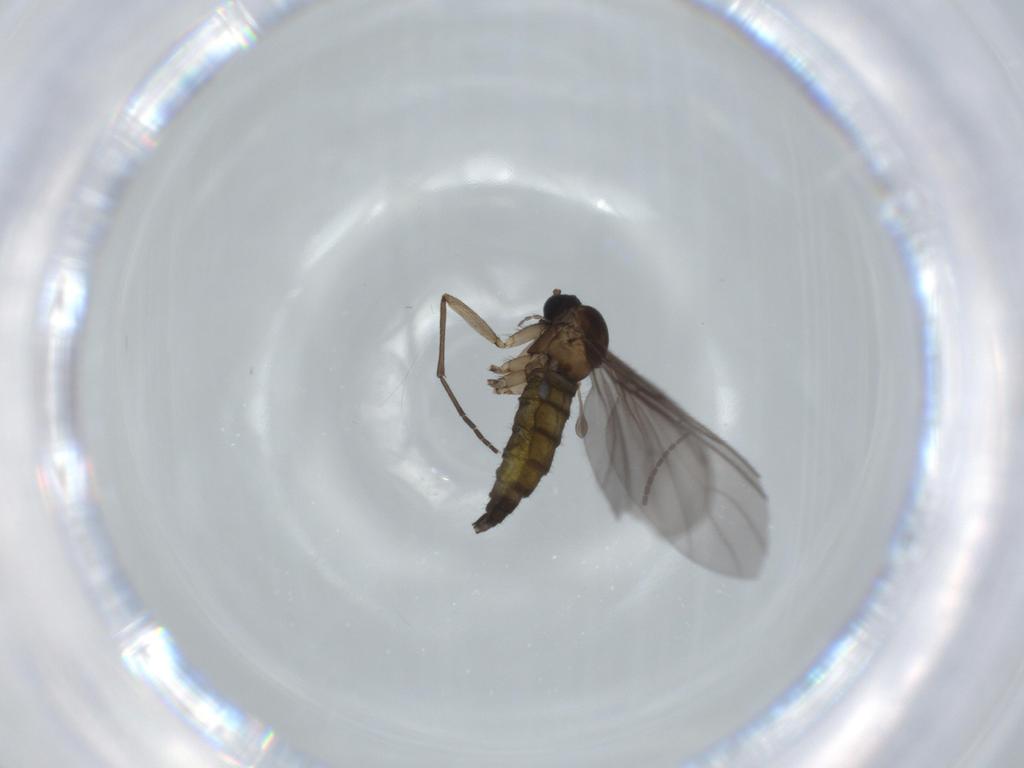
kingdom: Animalia
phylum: Arthropoda
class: Insecta
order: Diptera
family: Sciaridae
